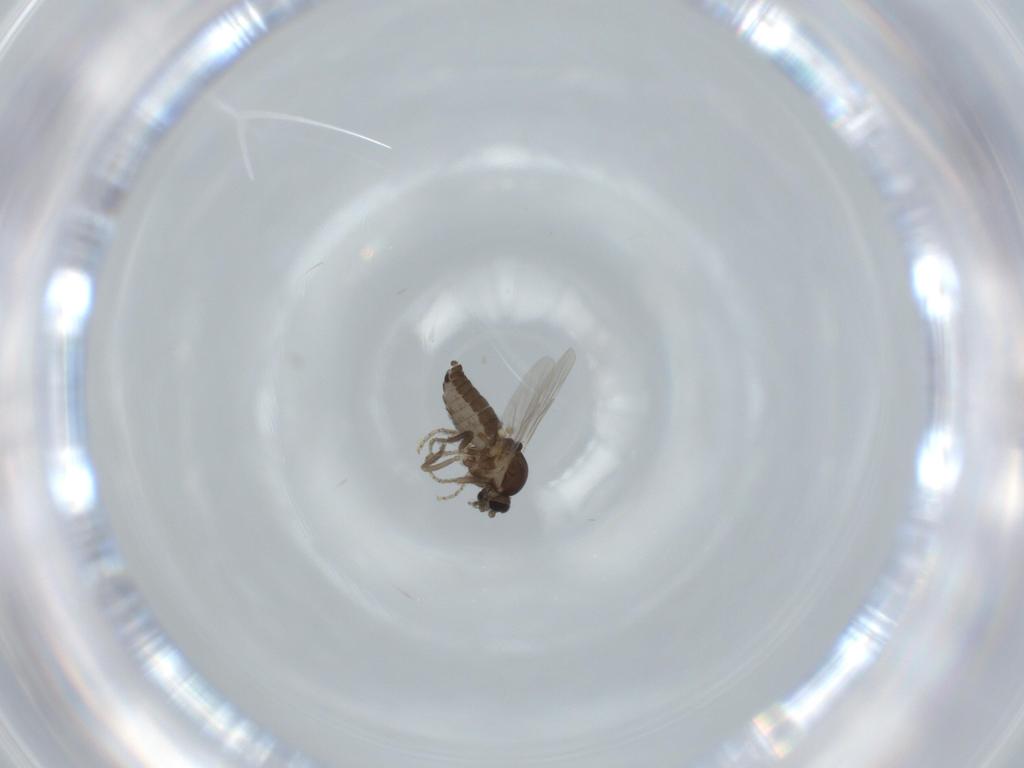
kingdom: Animalia
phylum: Arthropoda
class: Insecta
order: Diptera
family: Ceratopogonidae
